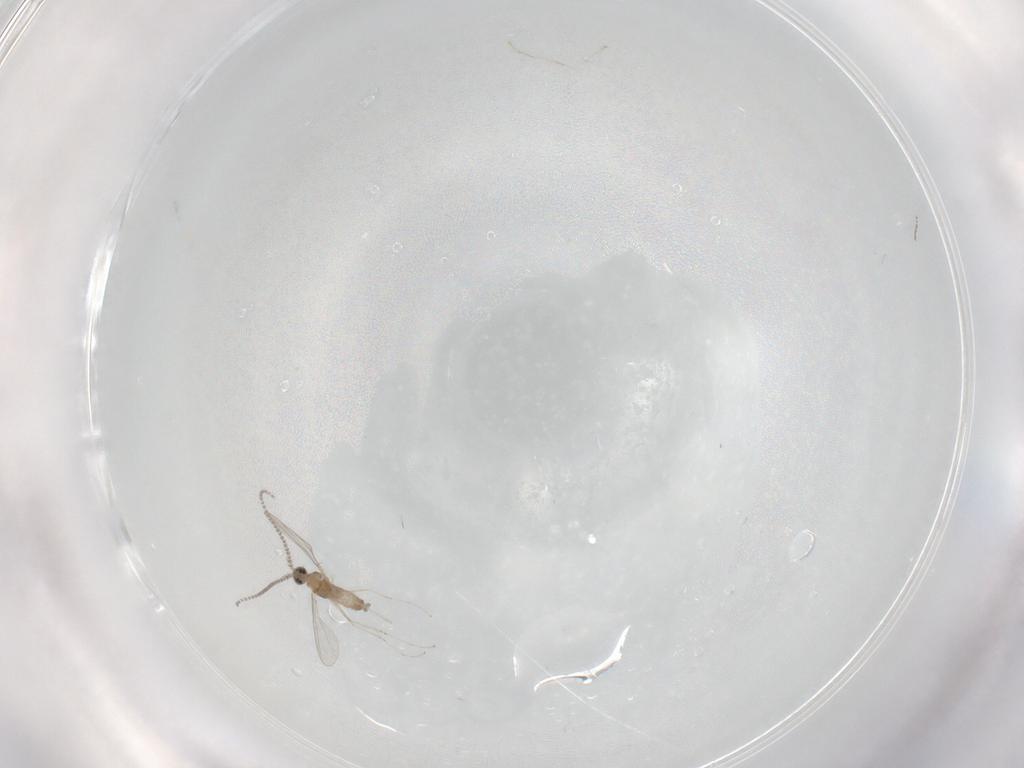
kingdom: Animalia
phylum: Arthropoda
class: Insecta
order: Diptera
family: Cecidomyiidae
